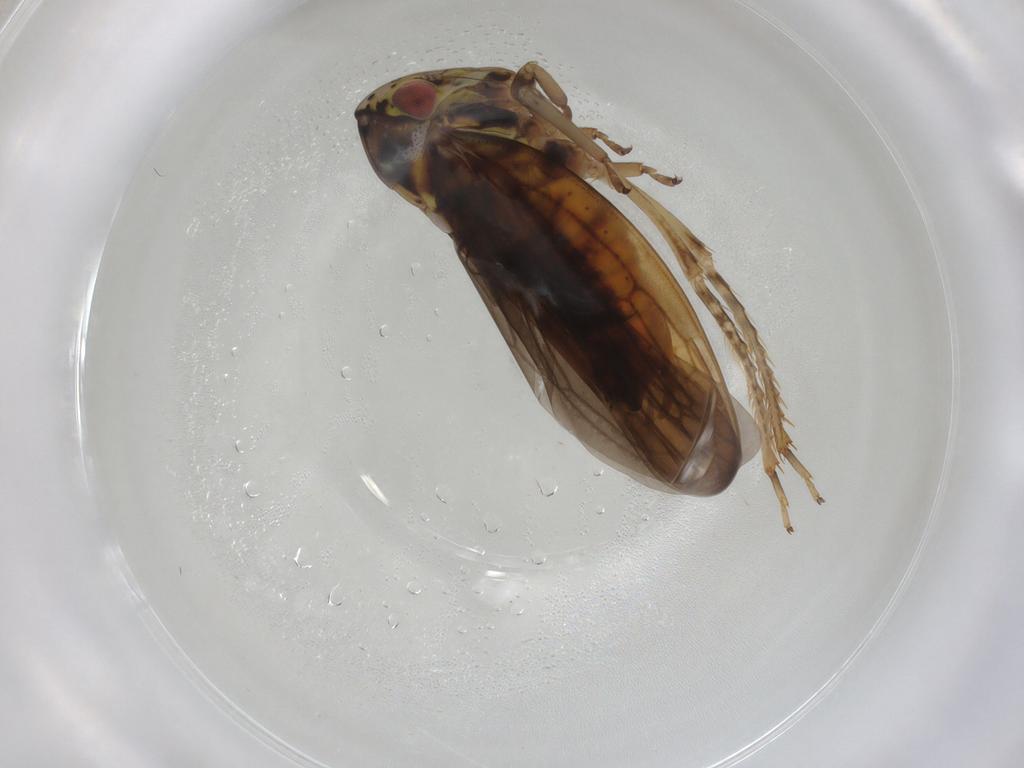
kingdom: Animalia
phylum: Arthropoda
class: Insecta
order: Hemiptera
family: Cicadellidae
